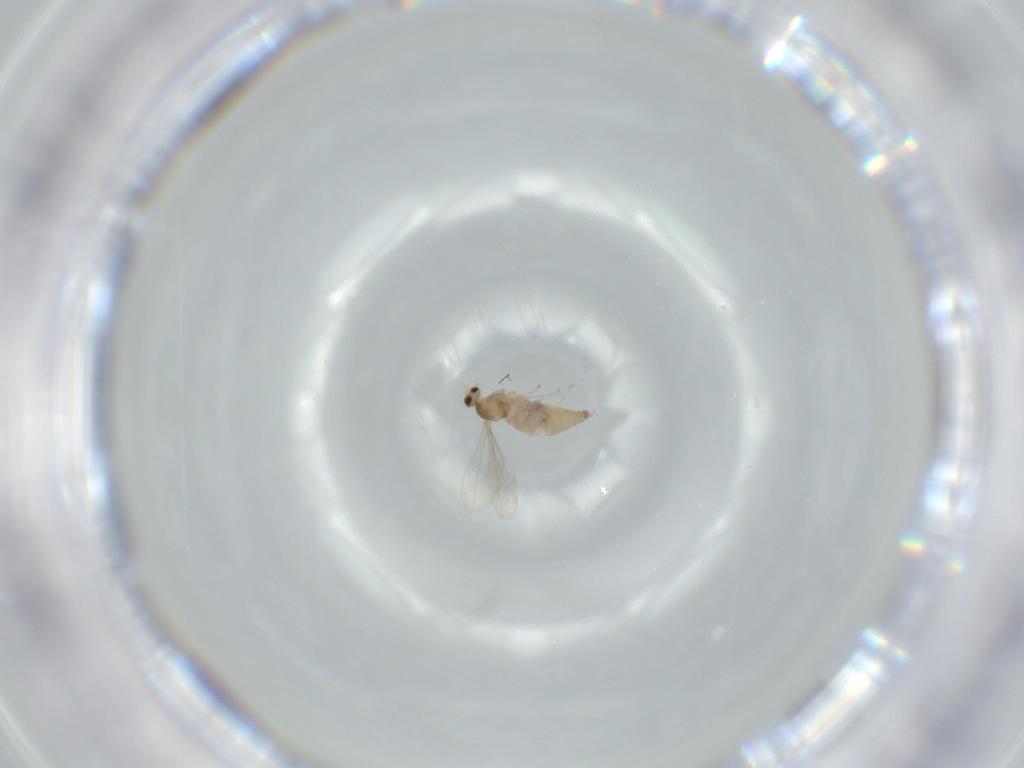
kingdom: Animalia
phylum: Arthropoda
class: Insecta
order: Diptera
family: Cecidomyiidae
